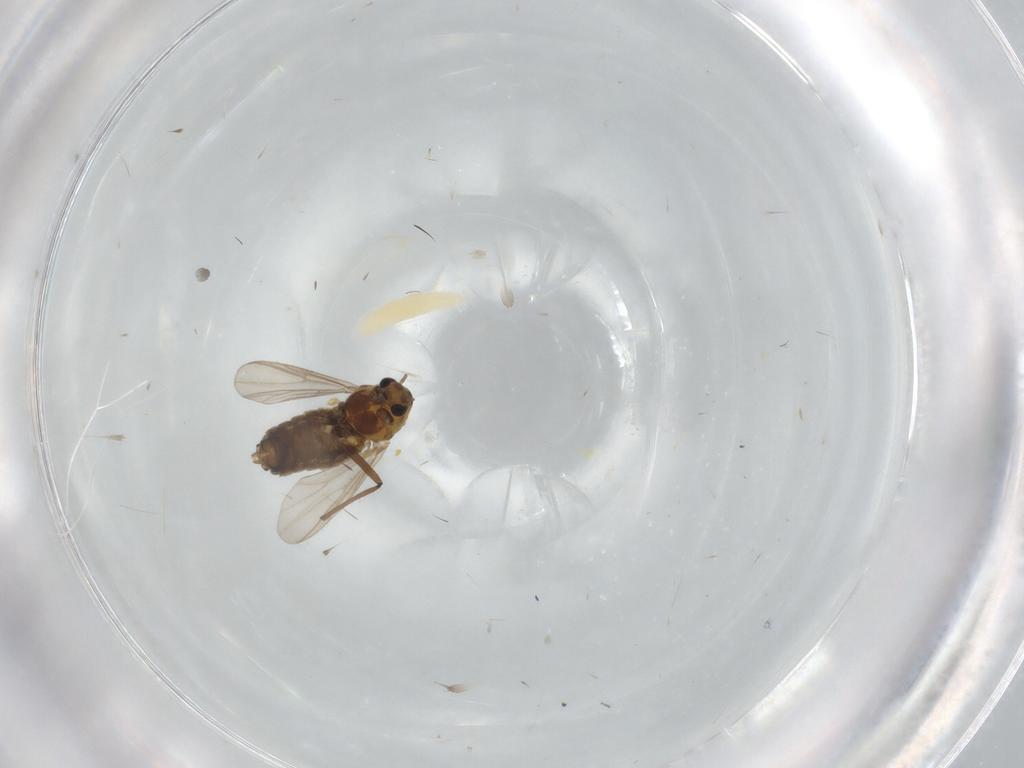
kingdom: Animalia
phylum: Arthropoda
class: Insecta
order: Diptera
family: Sarcophagidae
